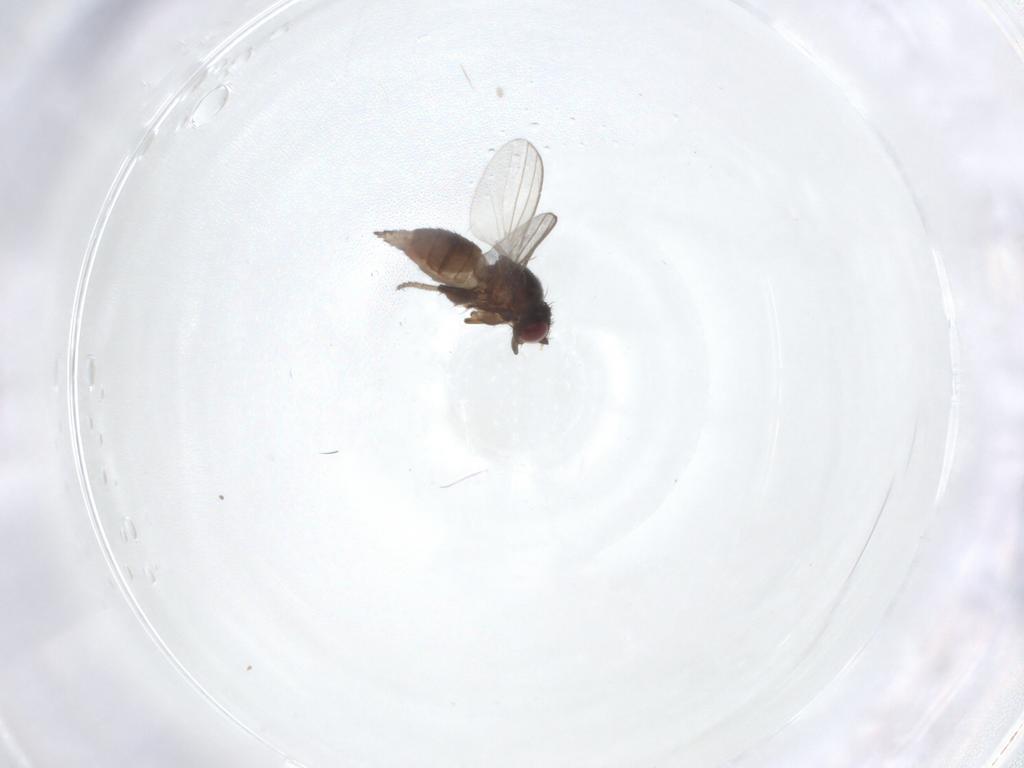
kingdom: Animalia
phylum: Arthropoda
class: Insecta
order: Diptera
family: Milichiidae
